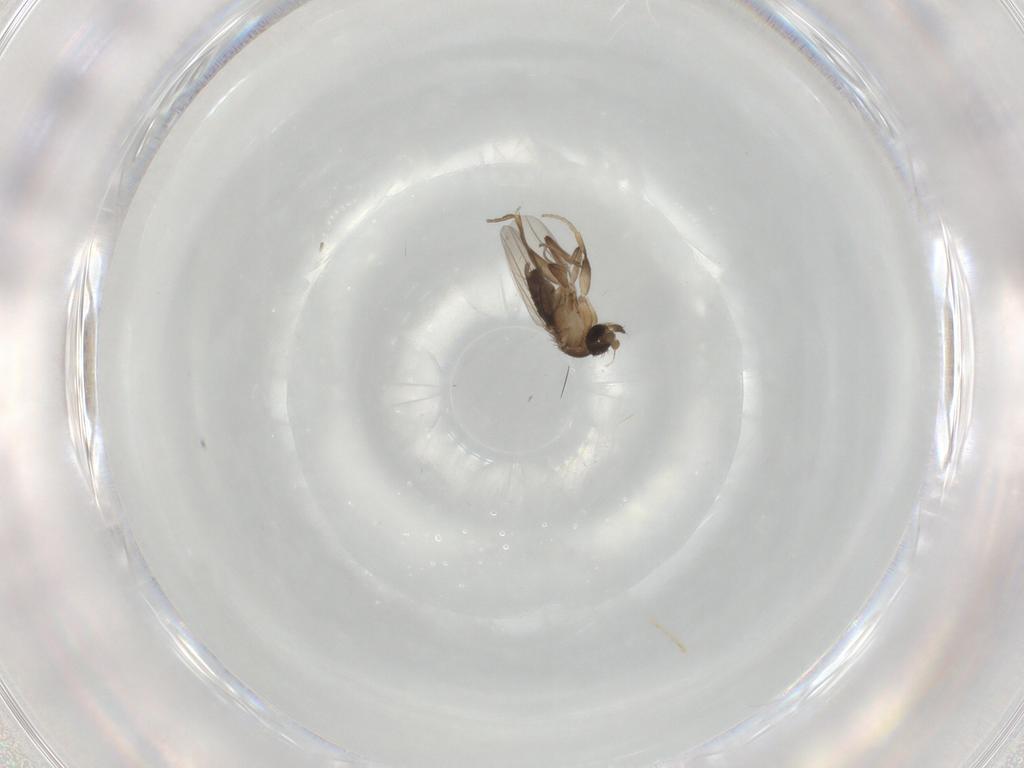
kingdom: Animalia
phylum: Arthropoda
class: Insecta
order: Diptera
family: Phoridae
